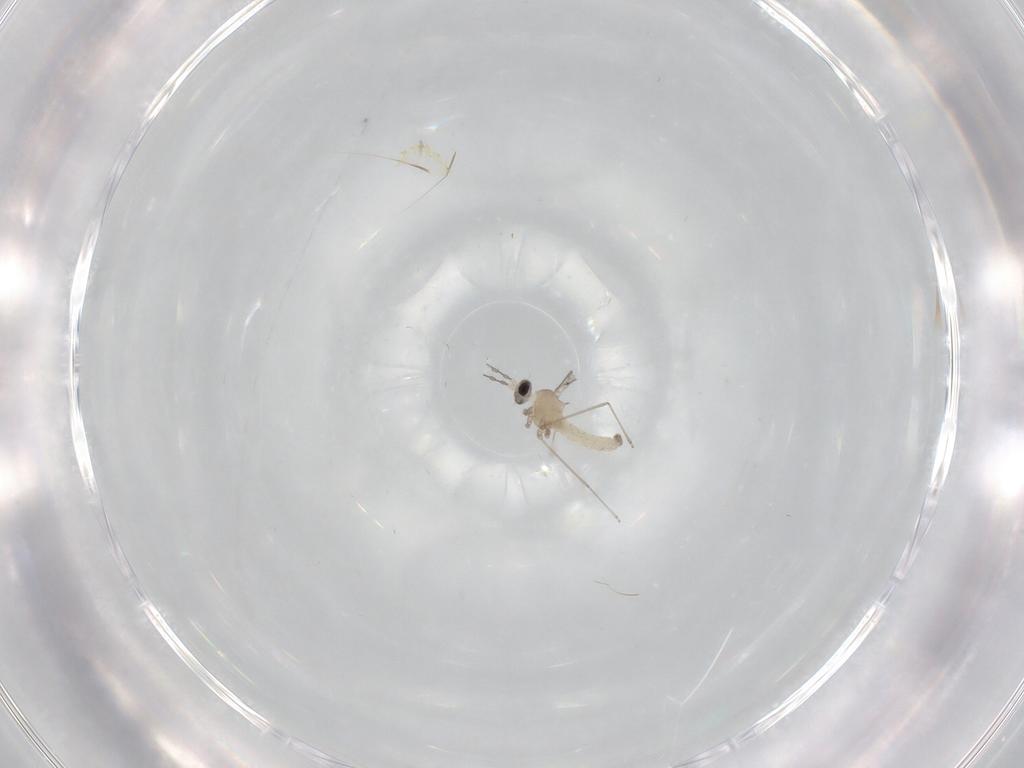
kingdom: Animalia
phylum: Arthropoda
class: Insecta
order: Diptera
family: Cecidomyiidae
